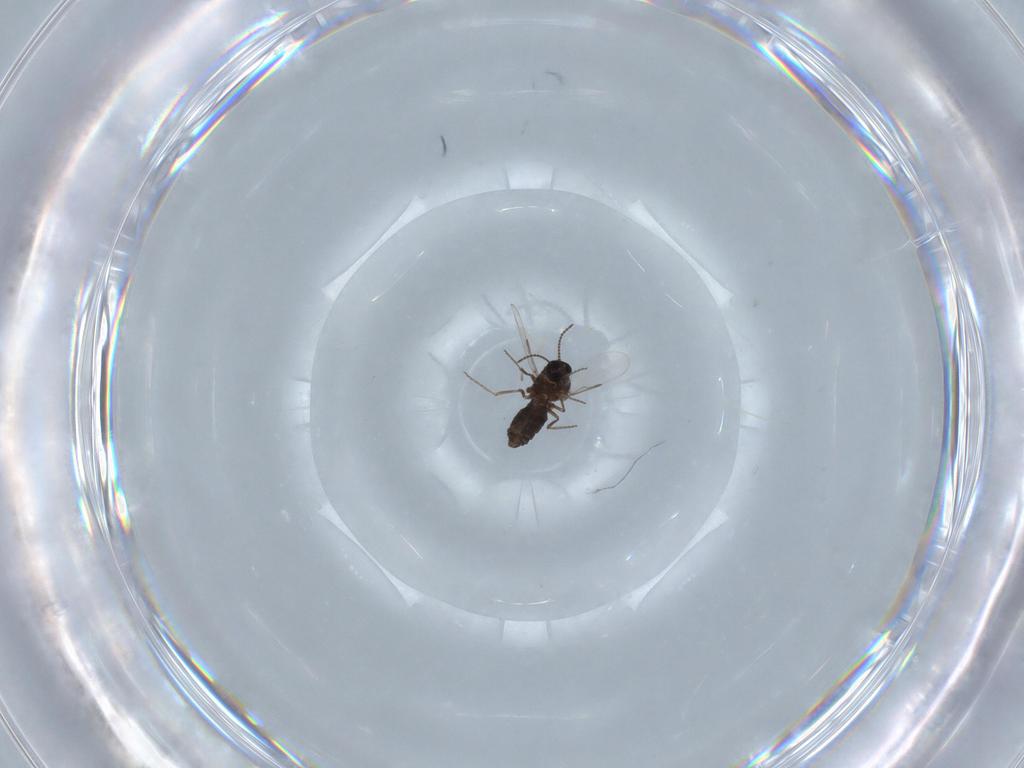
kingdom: Animalia
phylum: Arthropoda
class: Insecta
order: Diptera
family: Ceratopogonidae
